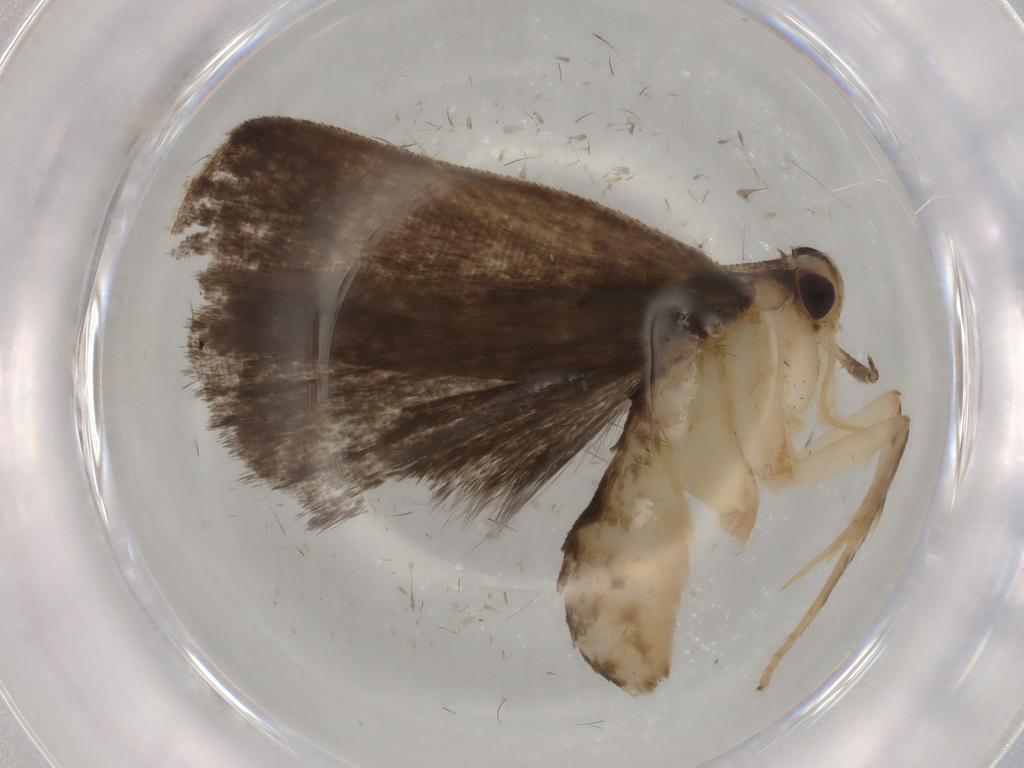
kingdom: Animalia
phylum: Arthropoda
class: Insecta
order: Lepidoptera
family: Gelechiidae
